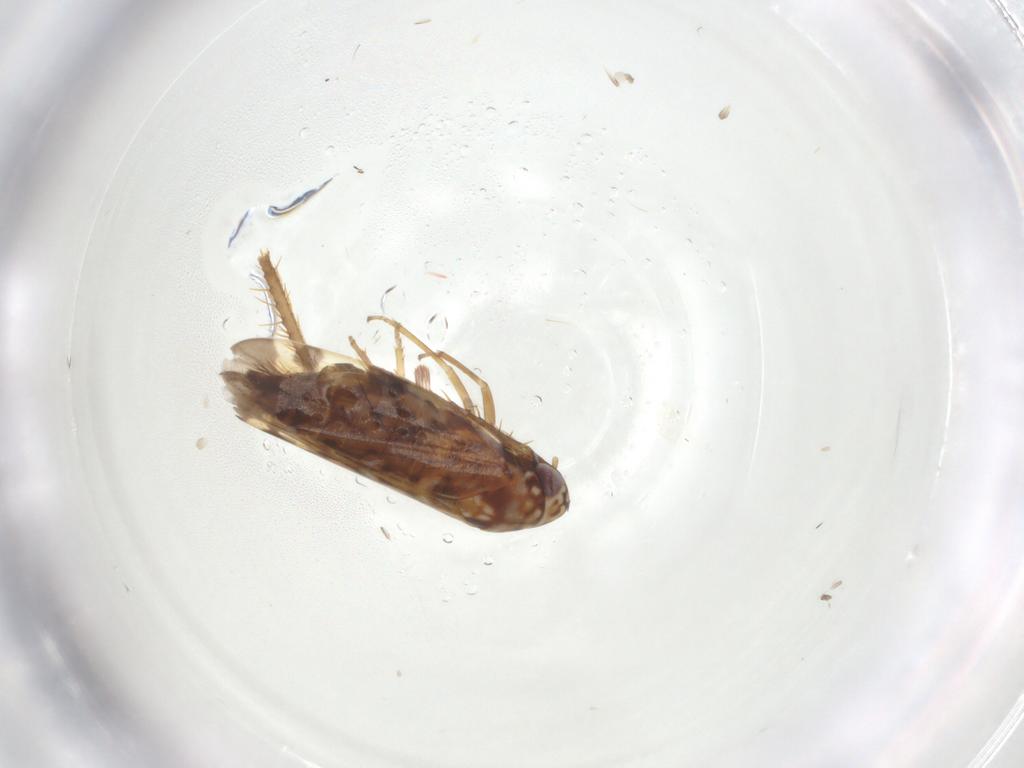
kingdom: Animalia
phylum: Arthropoda
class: Insecta
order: Hemiptera
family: Cicadellidae
